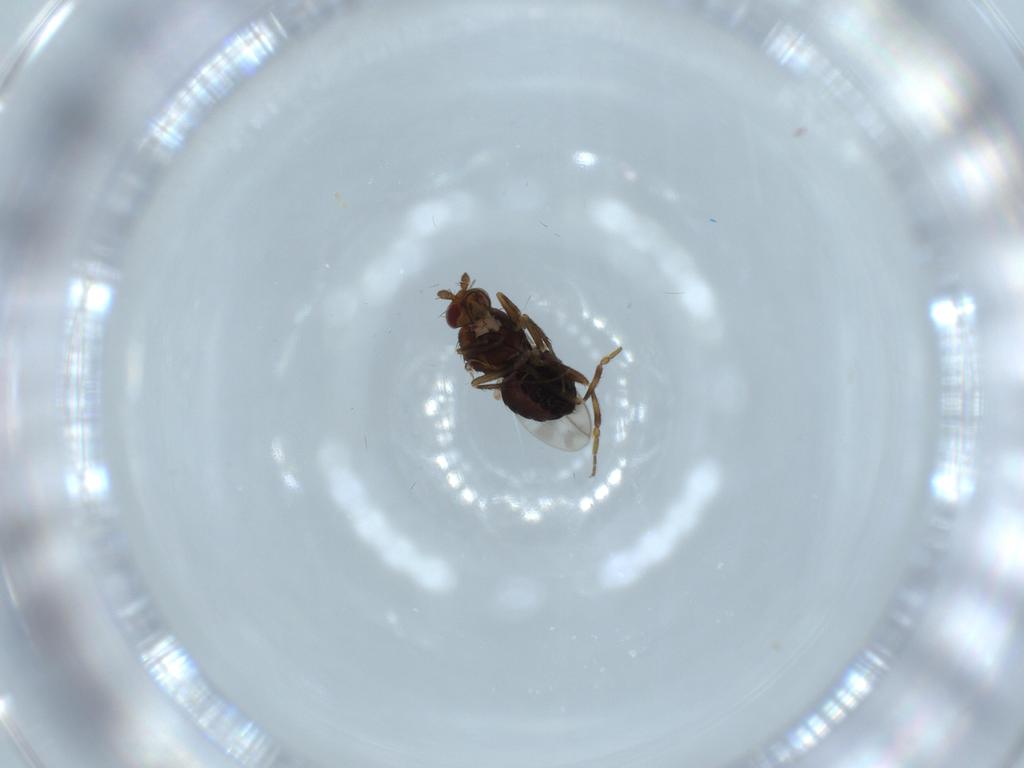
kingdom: Animalia
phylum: Arthropoda
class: Insecta
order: Diptera
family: Sphaeroceridae
